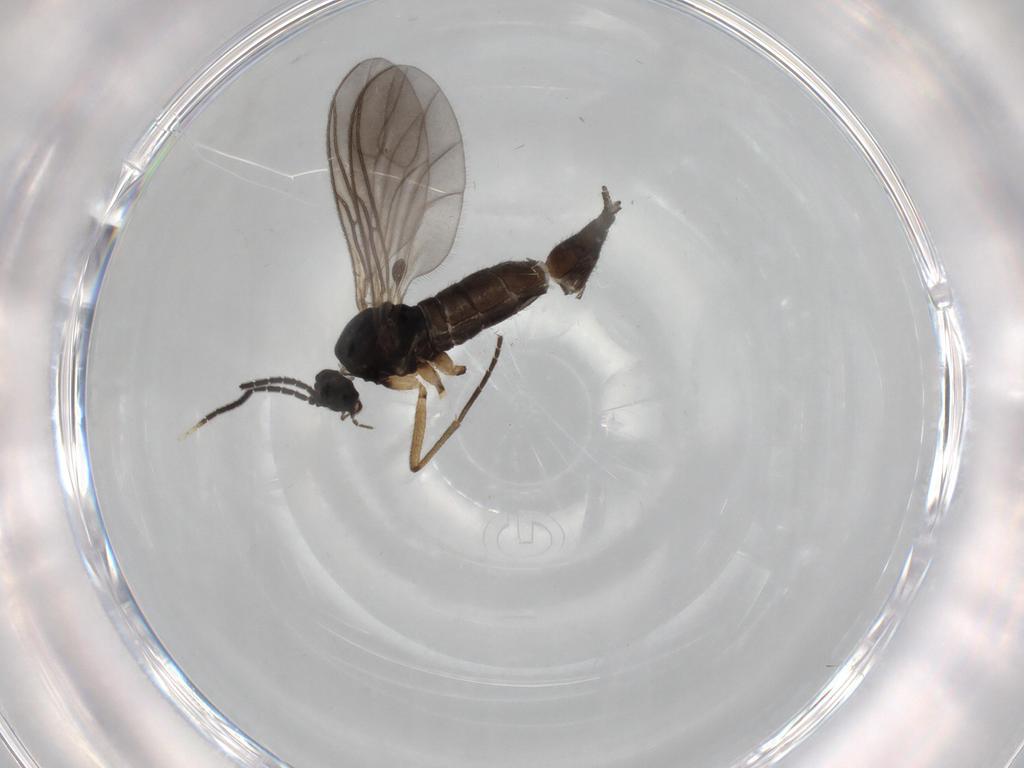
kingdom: Animalia
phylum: Arthropoda
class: Insecta
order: Diptera
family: Sciaridae
